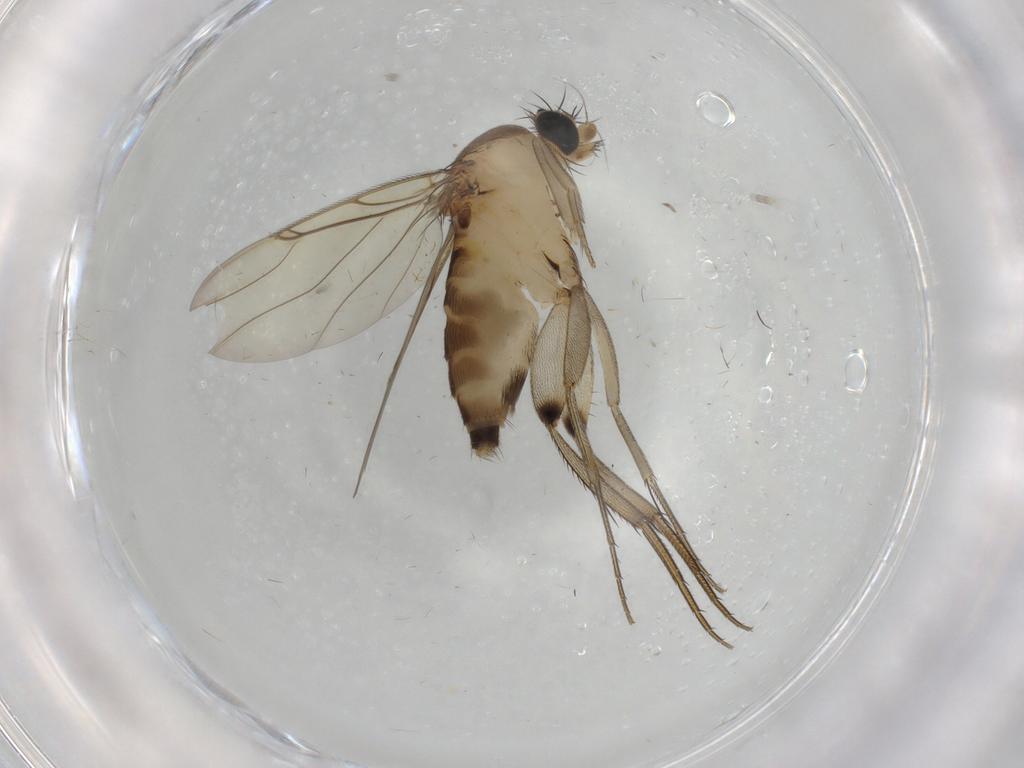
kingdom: Animalia
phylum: Arthropoda
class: Insecta
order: Diptera
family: Phoridae
